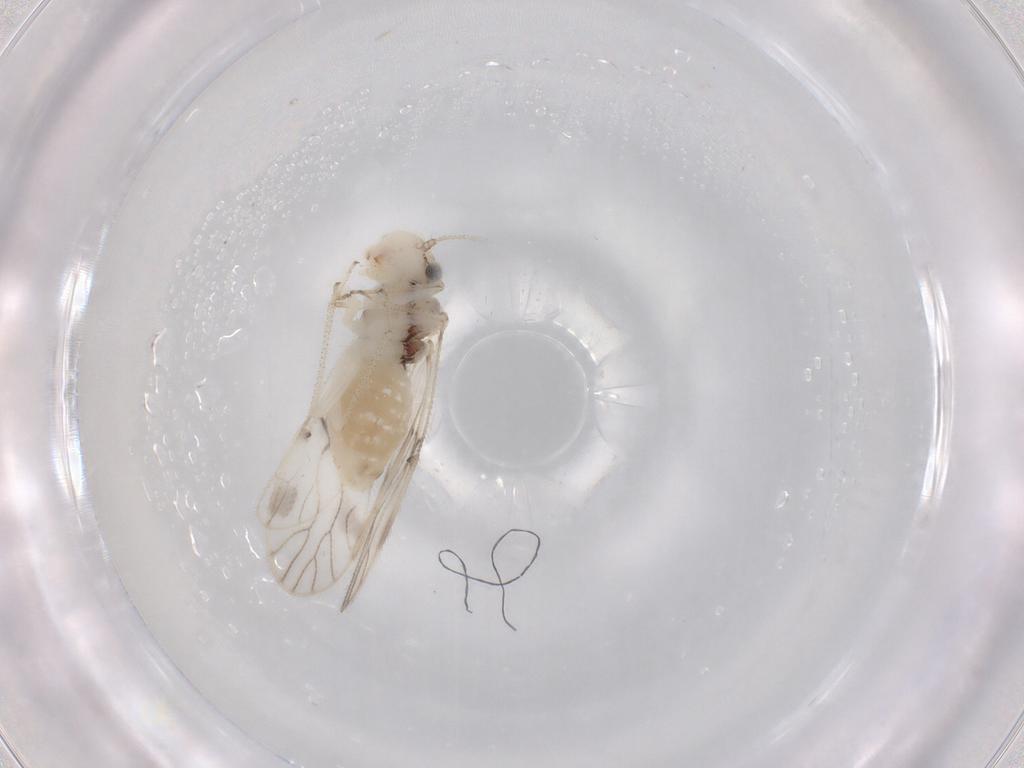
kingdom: Animalia
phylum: Arthropoda
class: Insecta
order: Psocodea
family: Caeciliusidae
